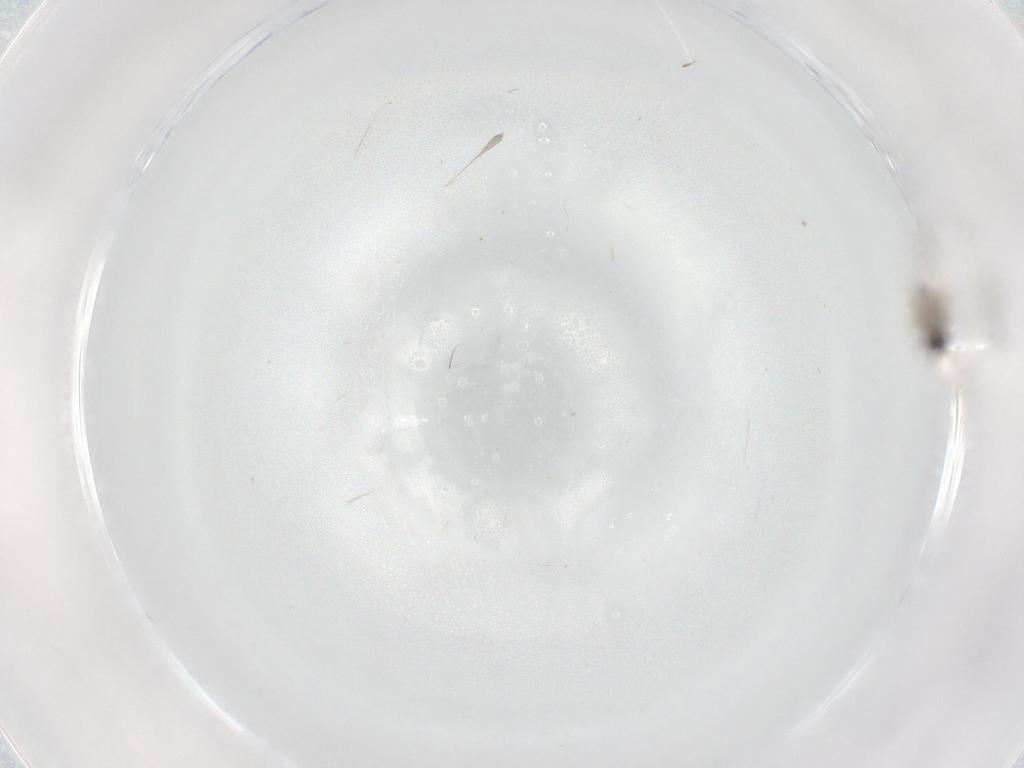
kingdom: Animalia
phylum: Arthropoda
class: Insecta
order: Diptera
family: Psychodidae
